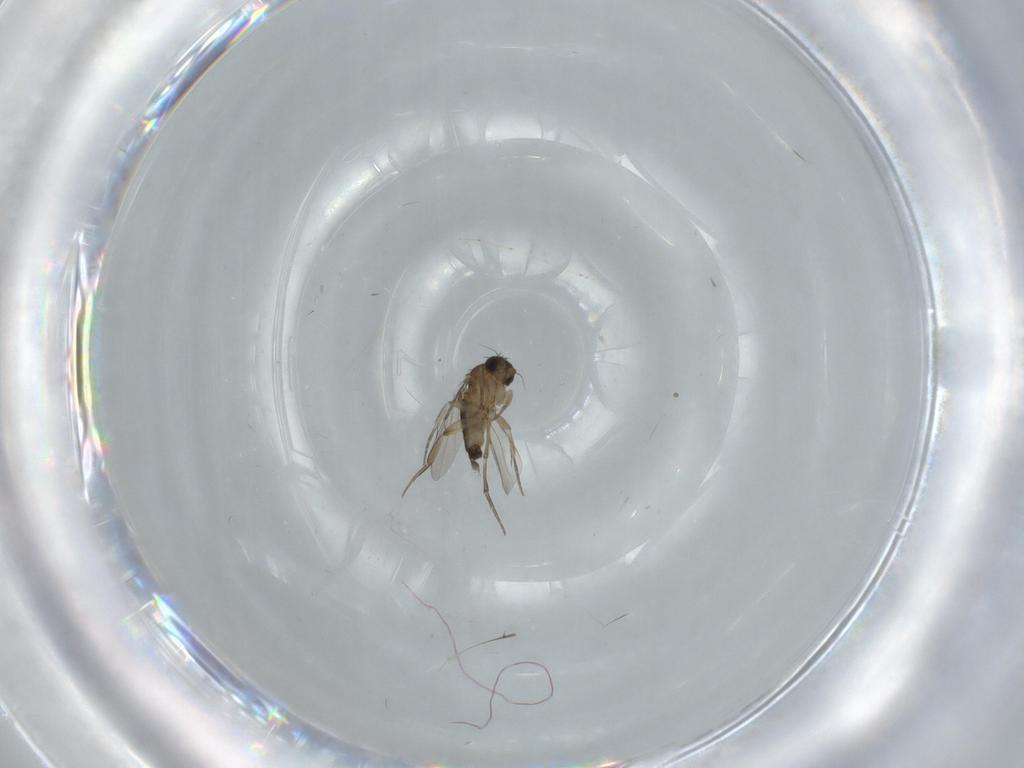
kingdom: Animalia
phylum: Arthropoda
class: Insecta
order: Diptera
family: Phoridae
